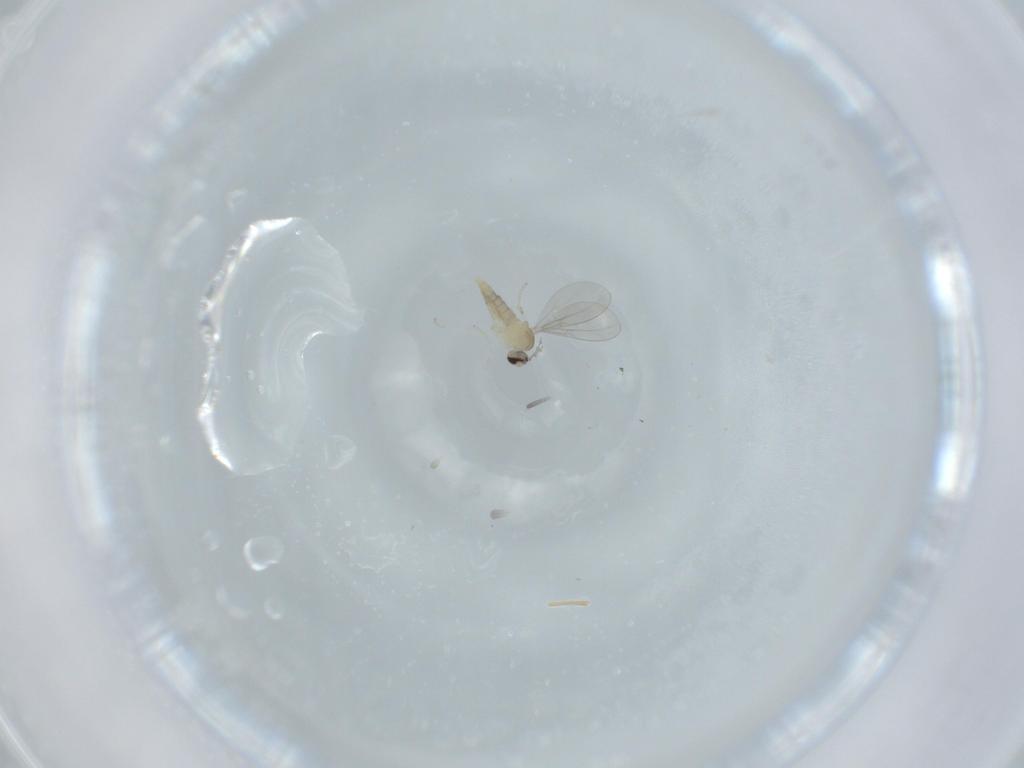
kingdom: Animalia
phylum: Arthropoda
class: Insecta
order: Diptera
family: Cecidomyiidae
